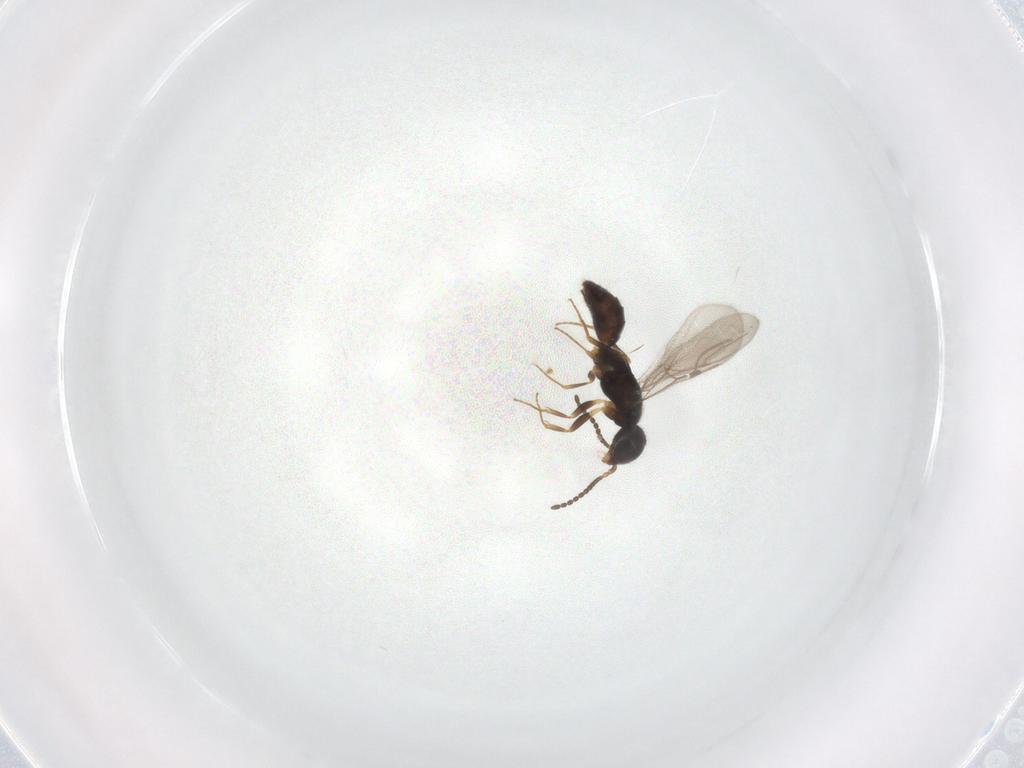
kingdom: Animalia
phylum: Arthropoda
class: Insecta
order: Hymenoptera
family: Bethylidae
